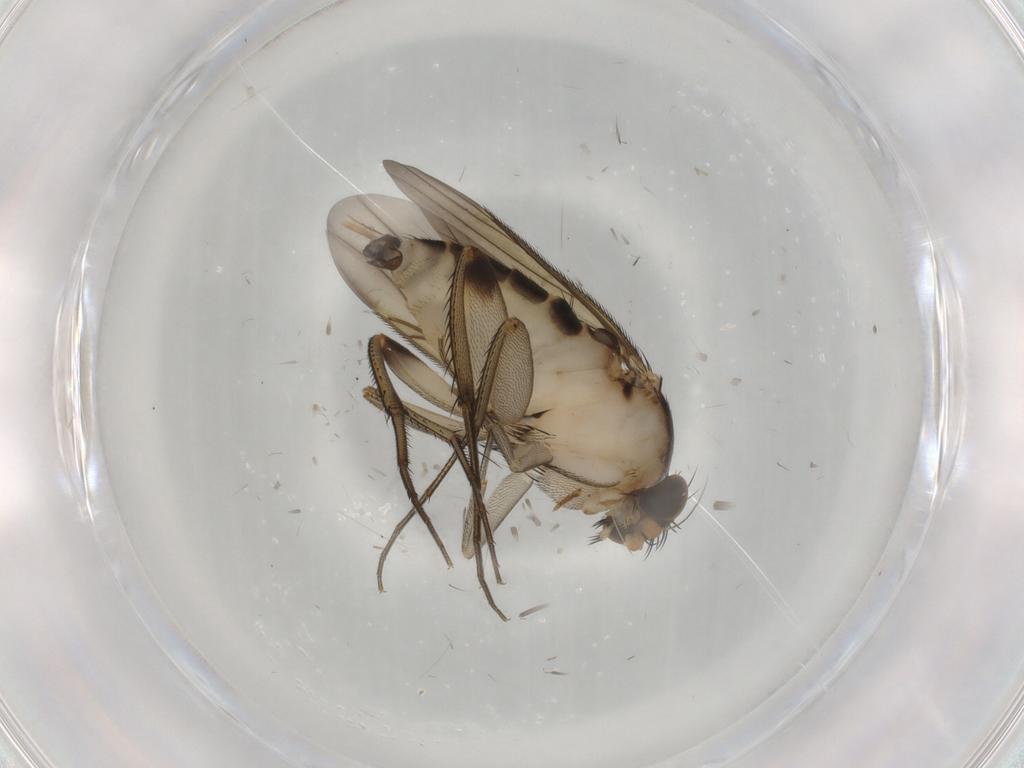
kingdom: Animalia
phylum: Arthropoda
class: Insecta
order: Diptera
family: Phoridae
